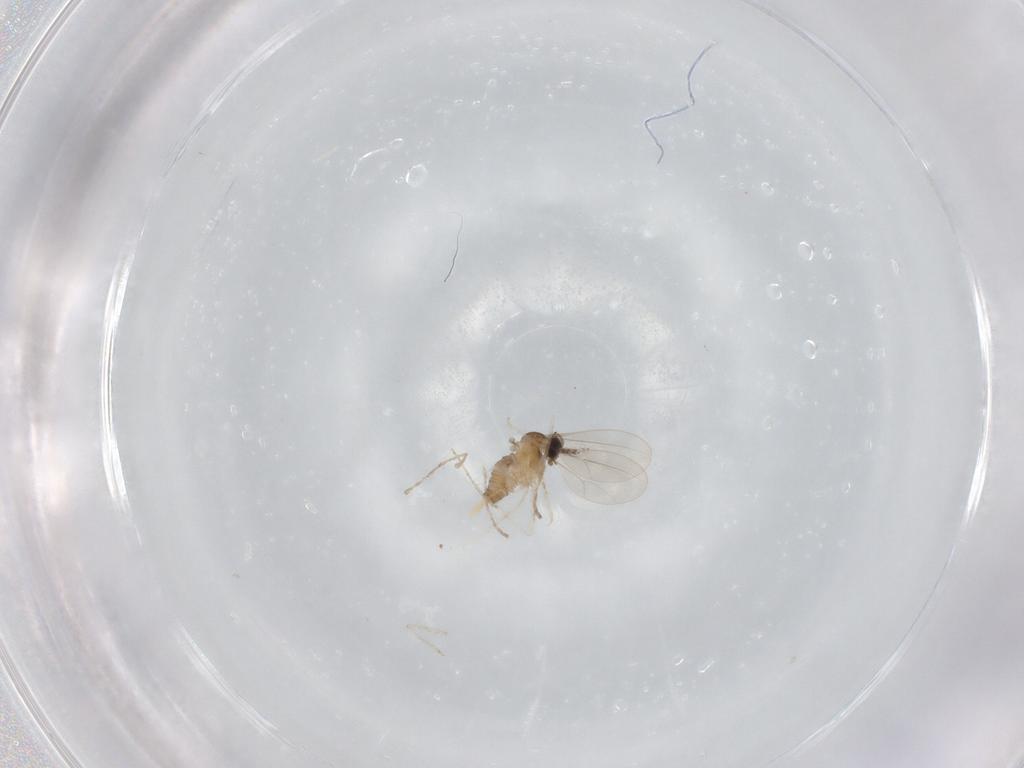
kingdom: Animalia
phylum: Arthropoda
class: Insecta
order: Diptera
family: Cecidomyiidae
